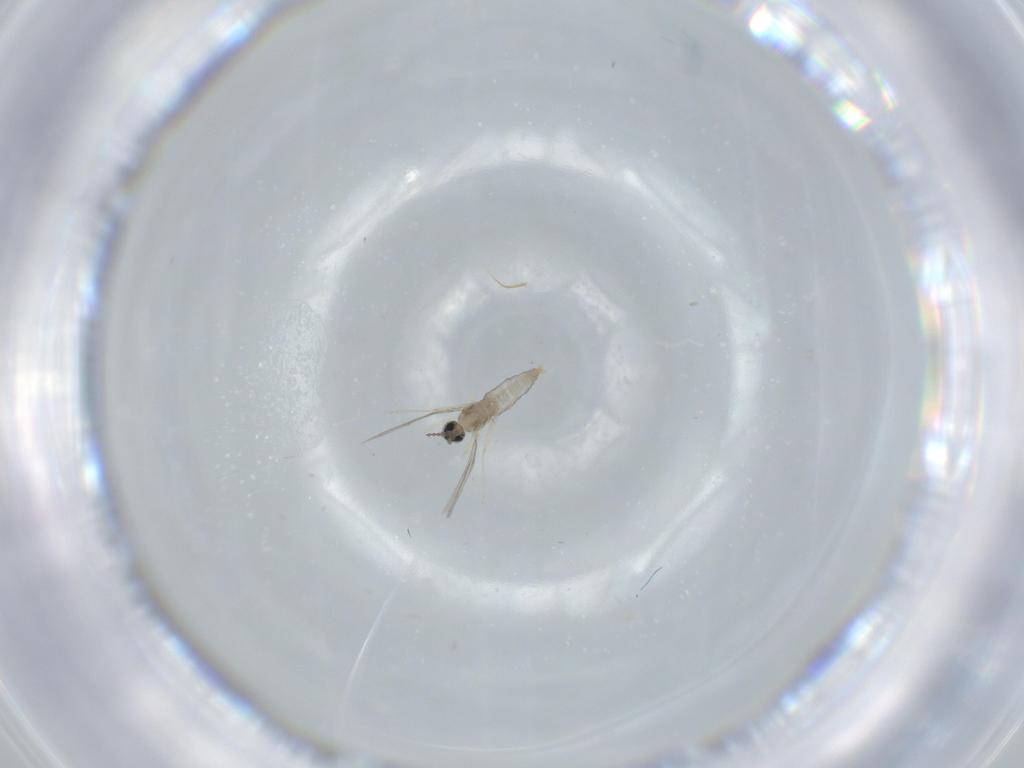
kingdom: Animalia
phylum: Arthropoda
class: Insecta
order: Diptera
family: Cecidomyiidae
